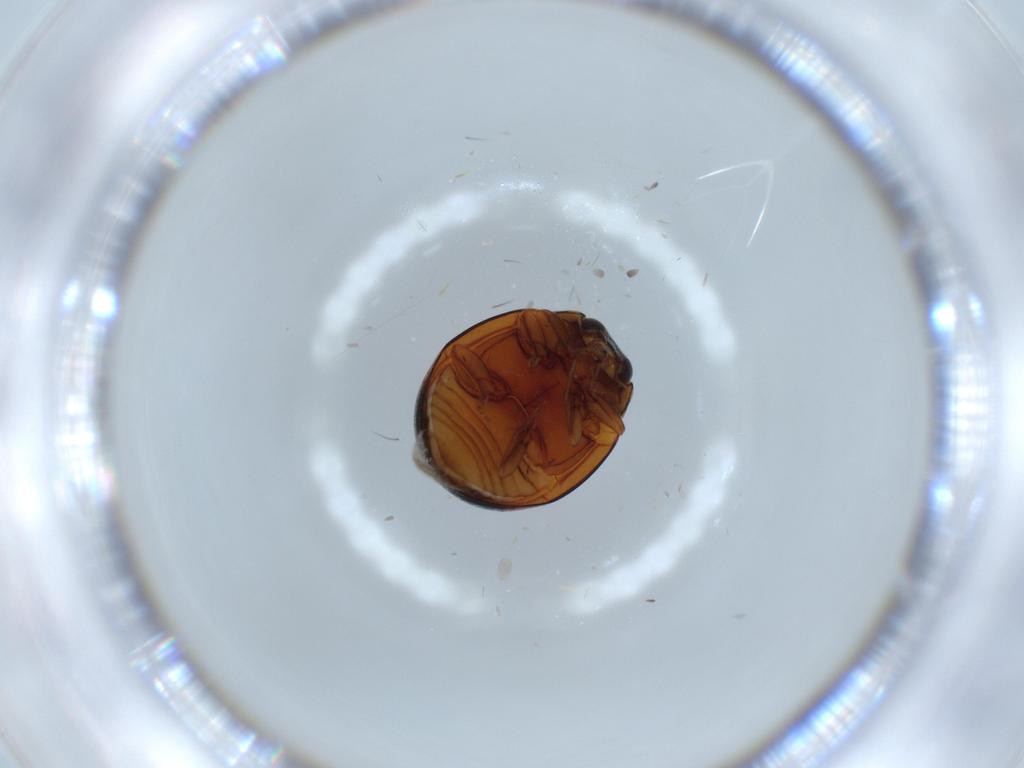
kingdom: Animalia
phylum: Arthropoda
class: Insecta
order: Coleoptera
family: Coccinellidae
